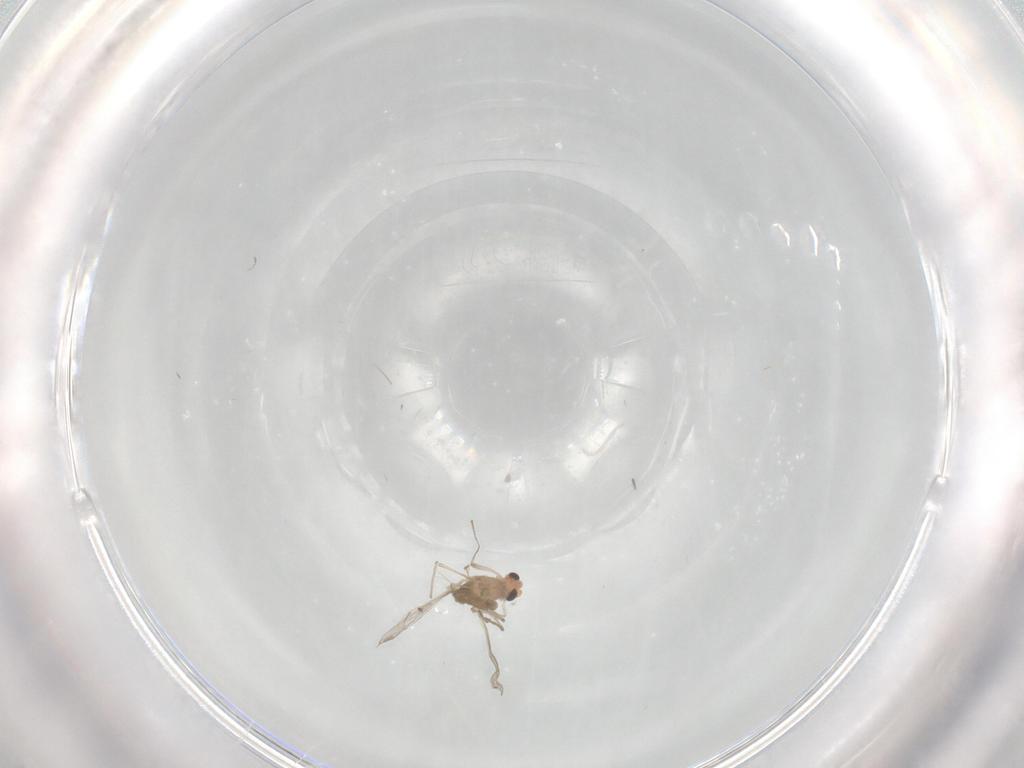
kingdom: Animalia
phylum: Arthropoda
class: Insecta
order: Diptera
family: Chironomidae
